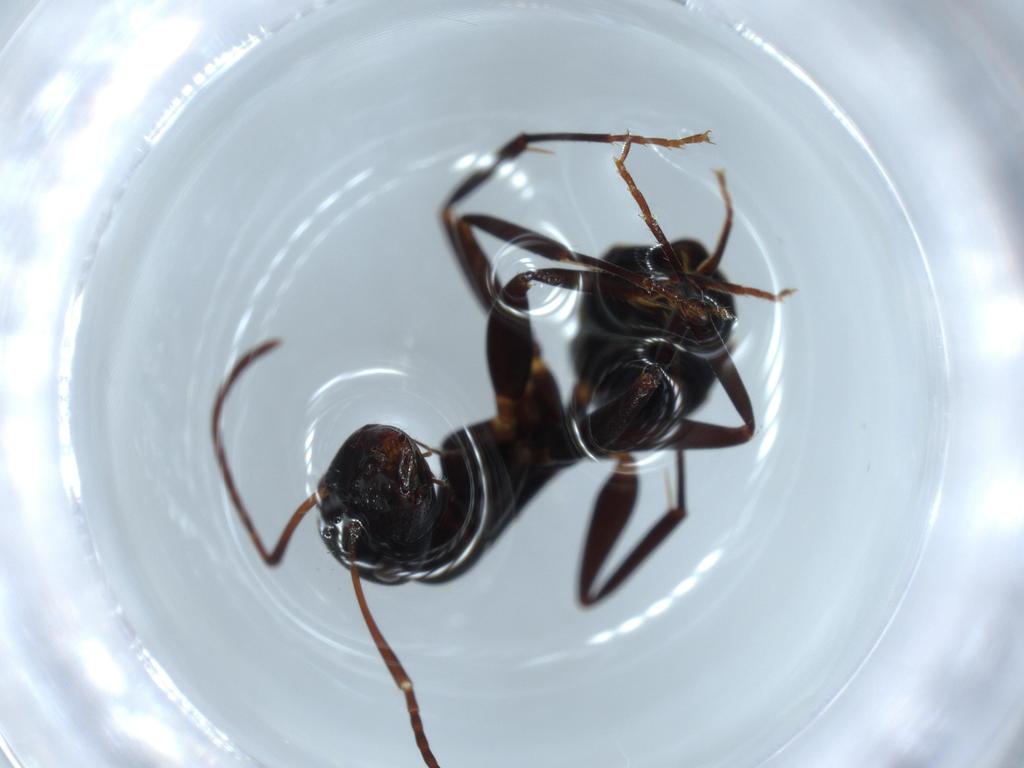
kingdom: Animalia
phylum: Arthropoda
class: Insecta
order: Hymenoptera
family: Formicidae
